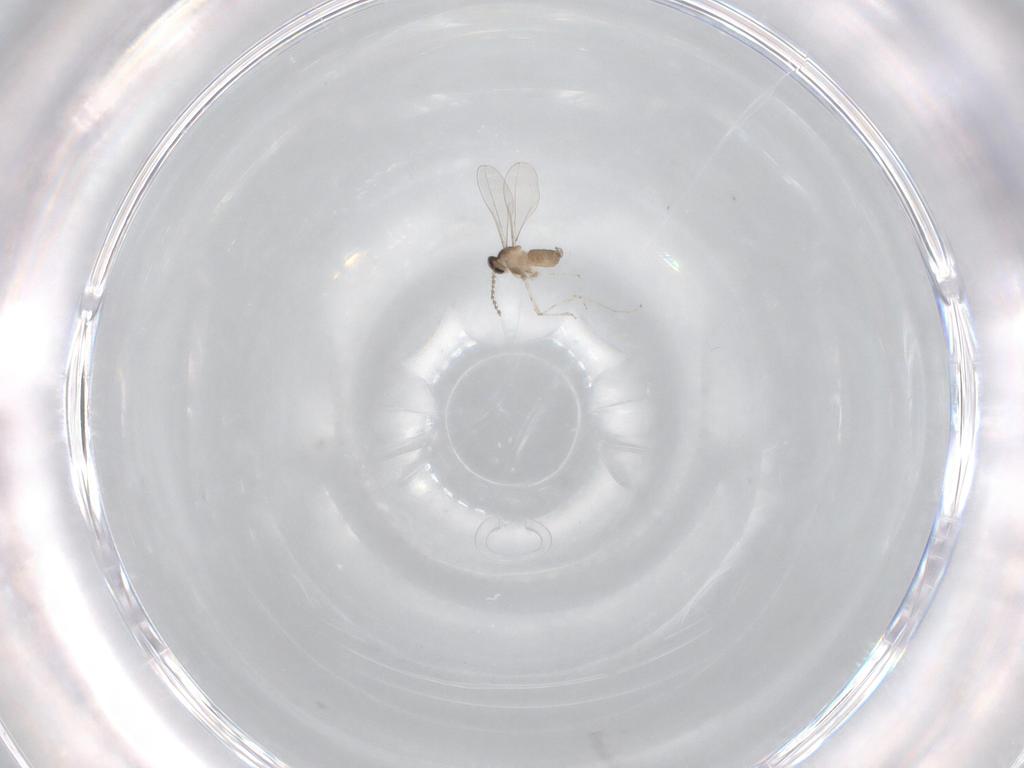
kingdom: Animalia
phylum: Arthropoda
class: Insecta
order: Diptera
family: Cecidomyiidae
